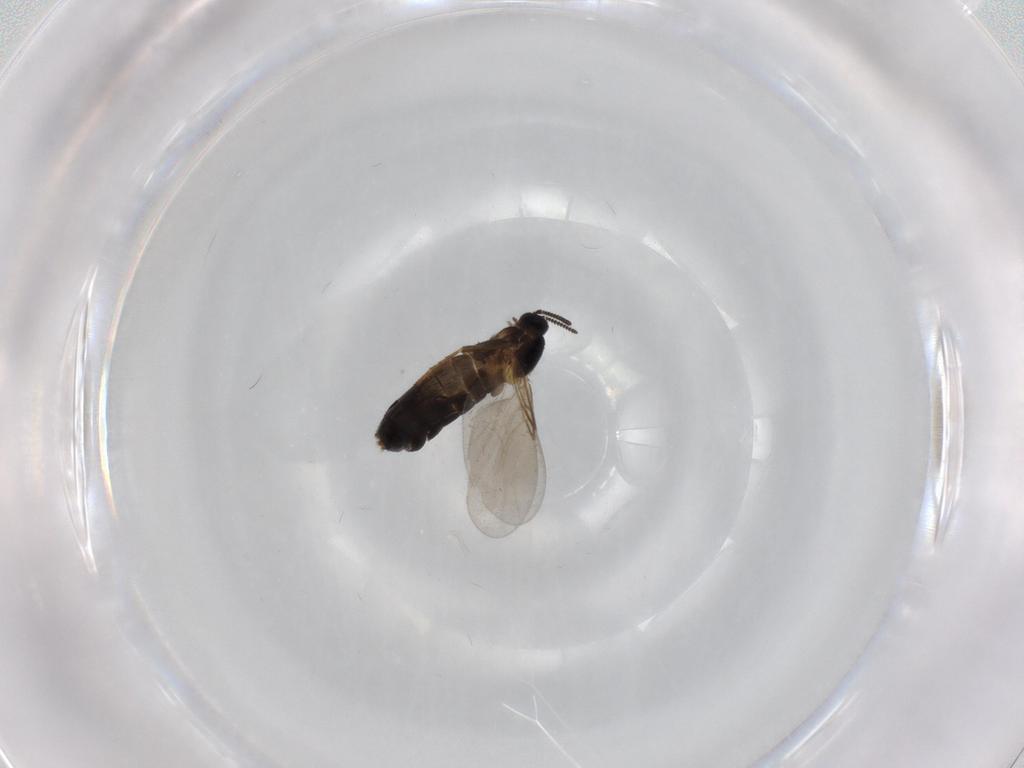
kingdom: Animalia
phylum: Arthropoda
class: Insecta
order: Diptera
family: Scatopsidae
